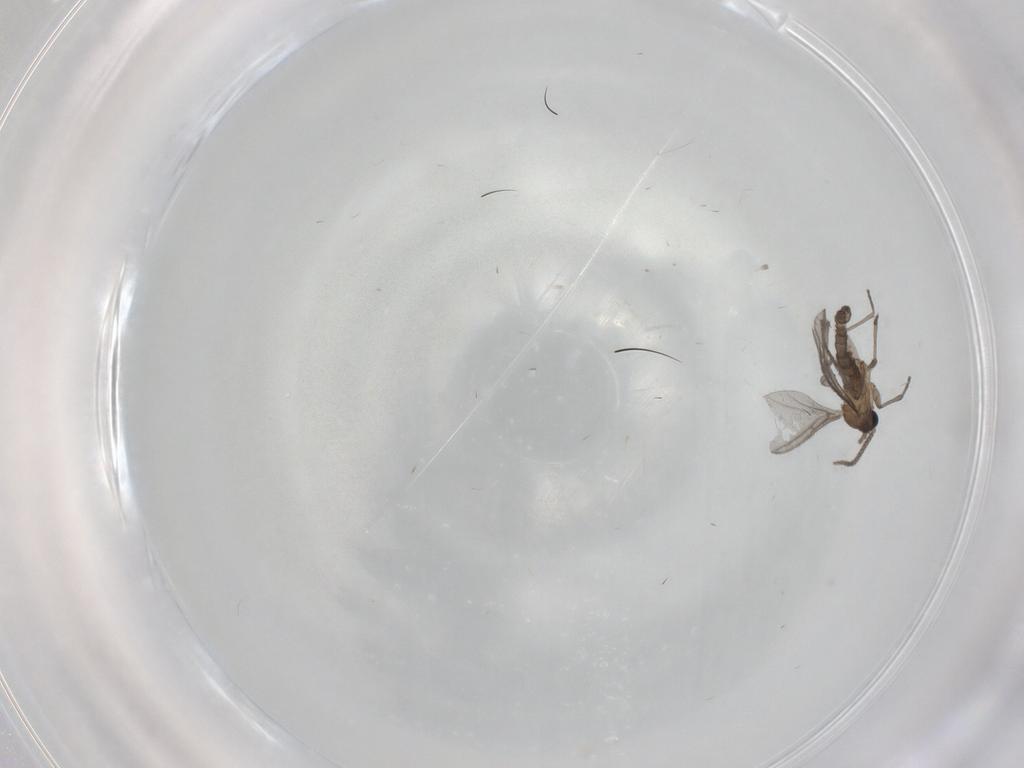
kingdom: Animalia
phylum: Arthropoda
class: Insecta
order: Diptera
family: Sciaridae
